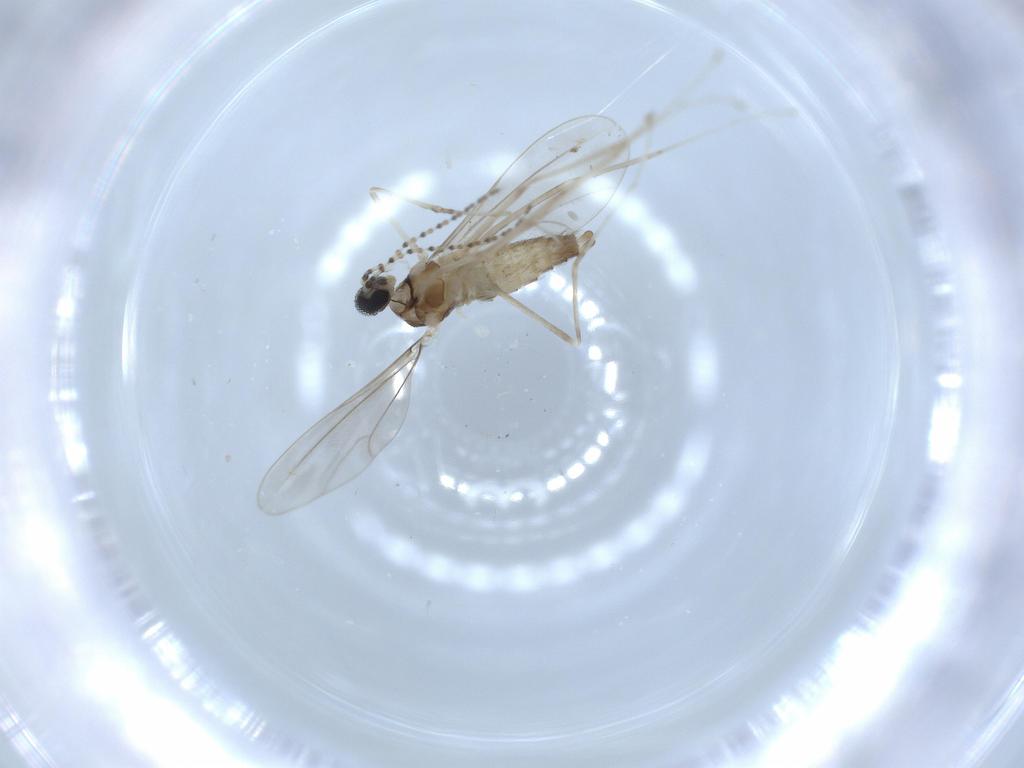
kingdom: Animalia
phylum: Arthropoda
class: Insecta
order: Diptera
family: Cecidomyiidae
